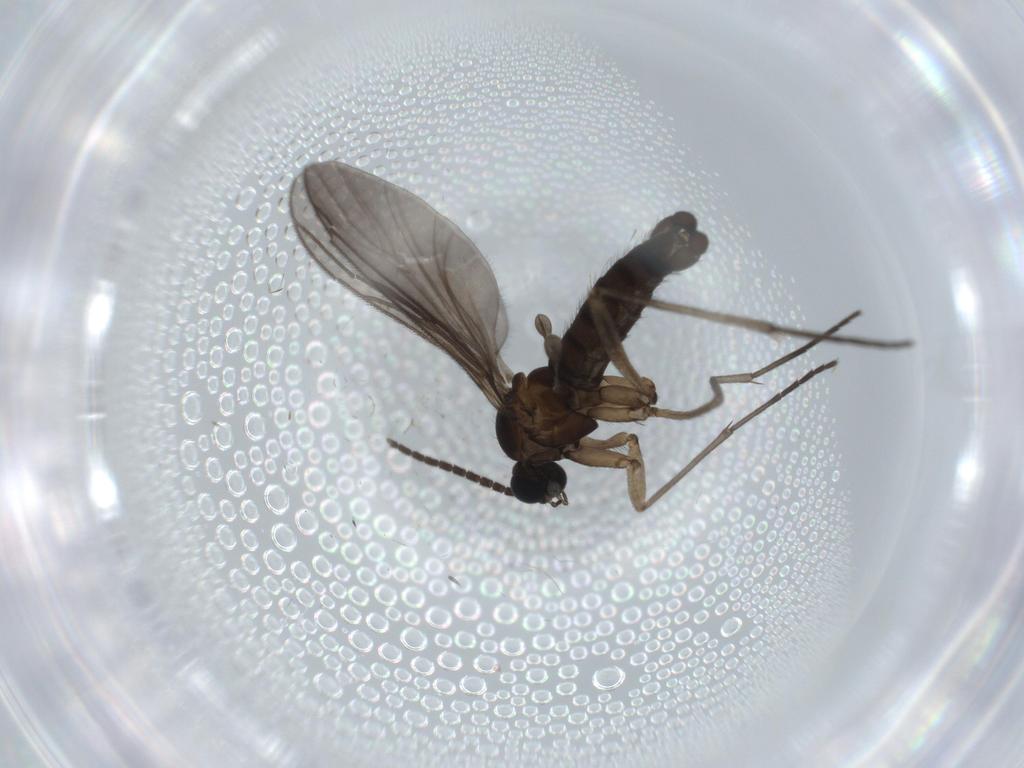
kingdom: Animalia
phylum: Arthropoda
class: Insecta
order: Diptera
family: Sciaridae
